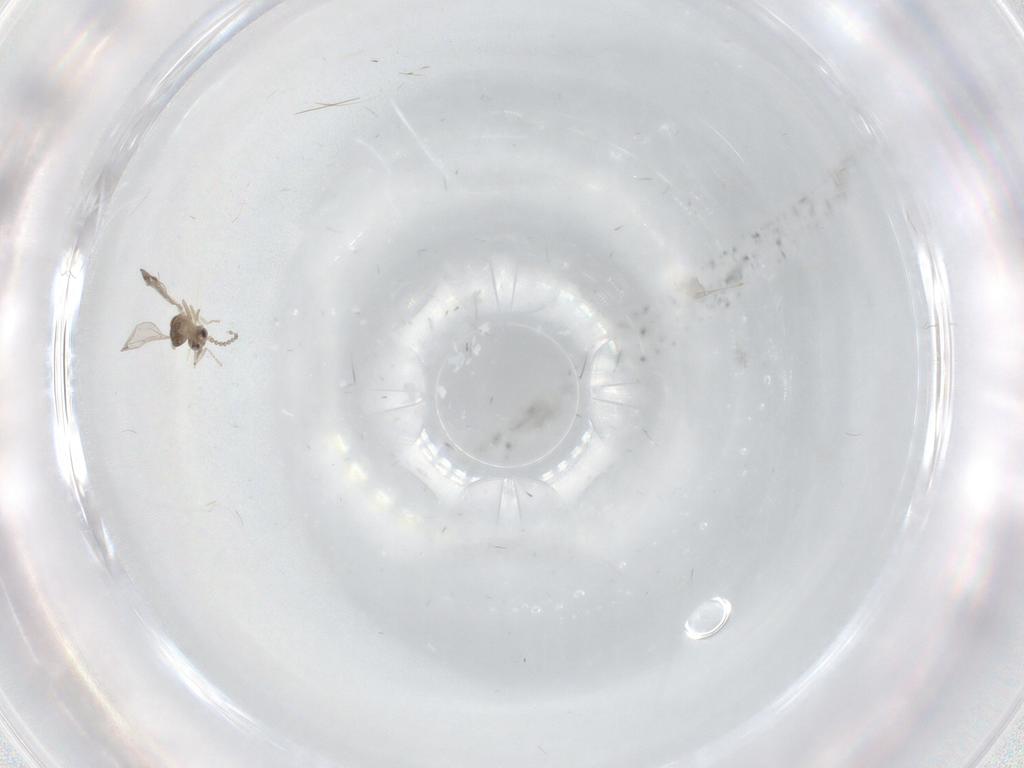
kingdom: Animalia
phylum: Arthropoda
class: Insecta
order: Diptera
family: Cecidomyiidae
